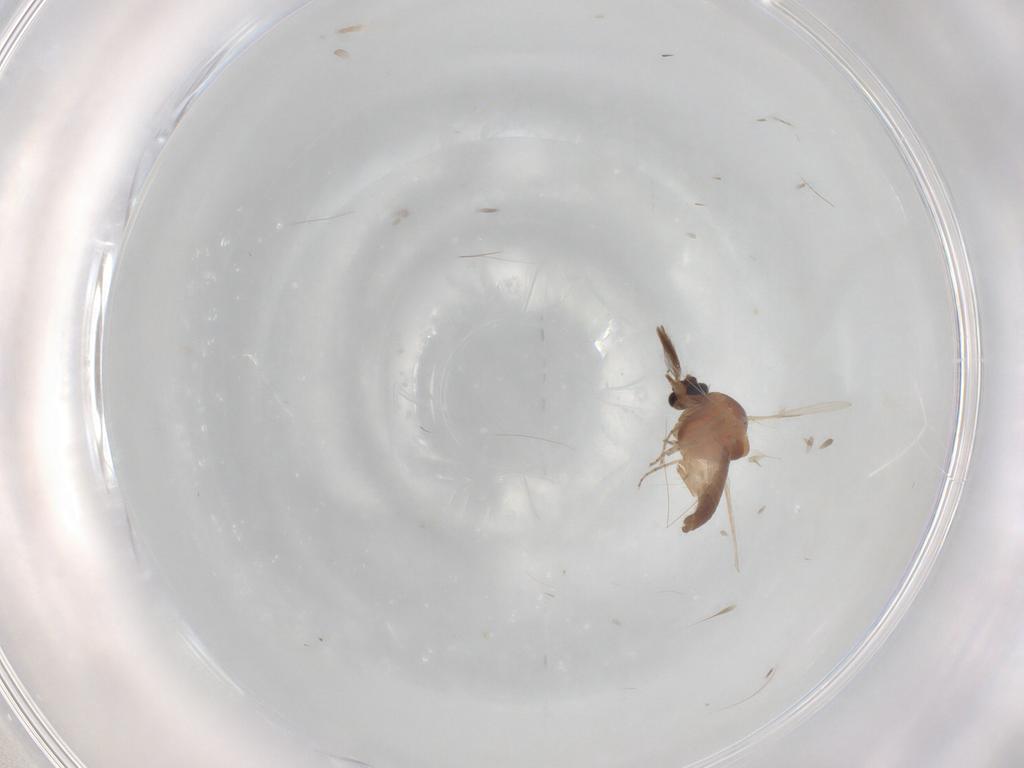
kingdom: Animalia
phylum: Arthropoda
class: Insecta
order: Diptera
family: Ceratopogonidae
